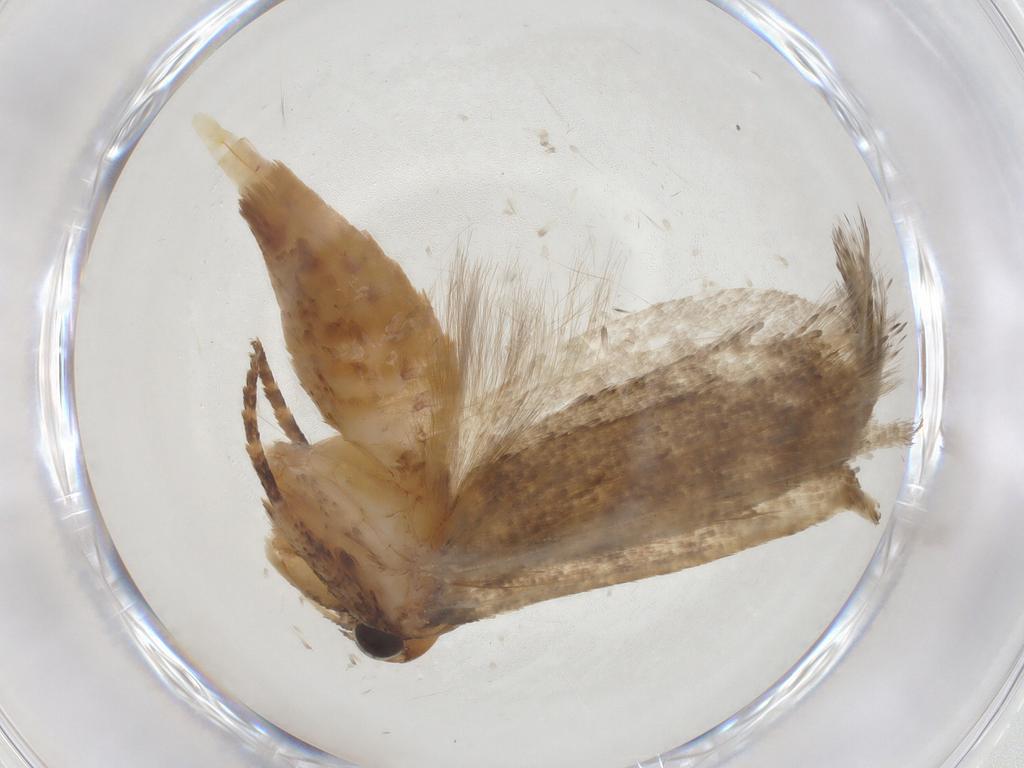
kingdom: Animalia
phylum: Arthropoda
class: Insecta
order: Lepidoptera
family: Gelechiidae
